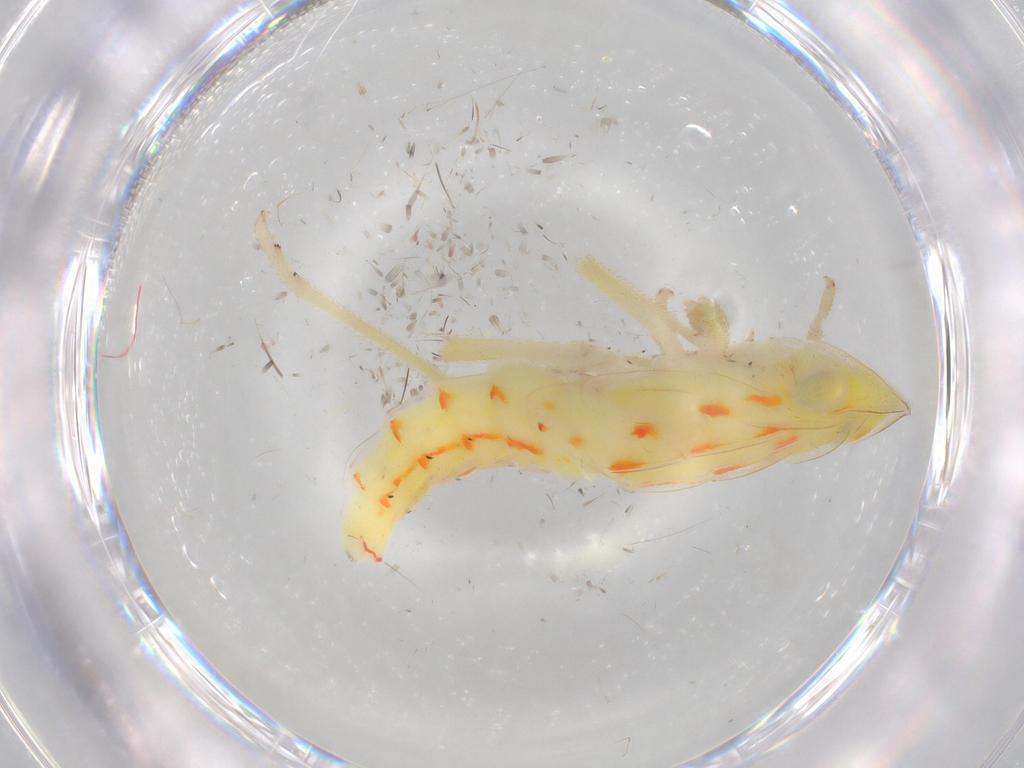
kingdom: Animalia
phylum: Arthropoda
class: Insecta
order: Hemiptera
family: Tropiduchidae
